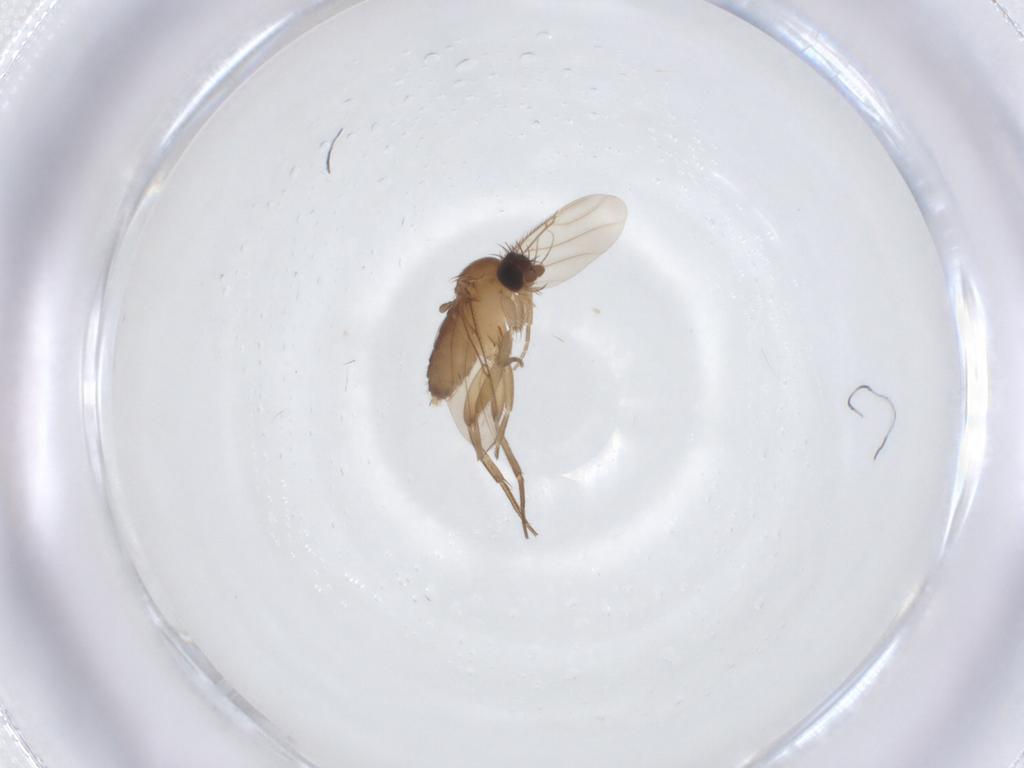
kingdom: Animalia
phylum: Arthropoda
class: Insecta
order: Diptera
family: Phoridae
